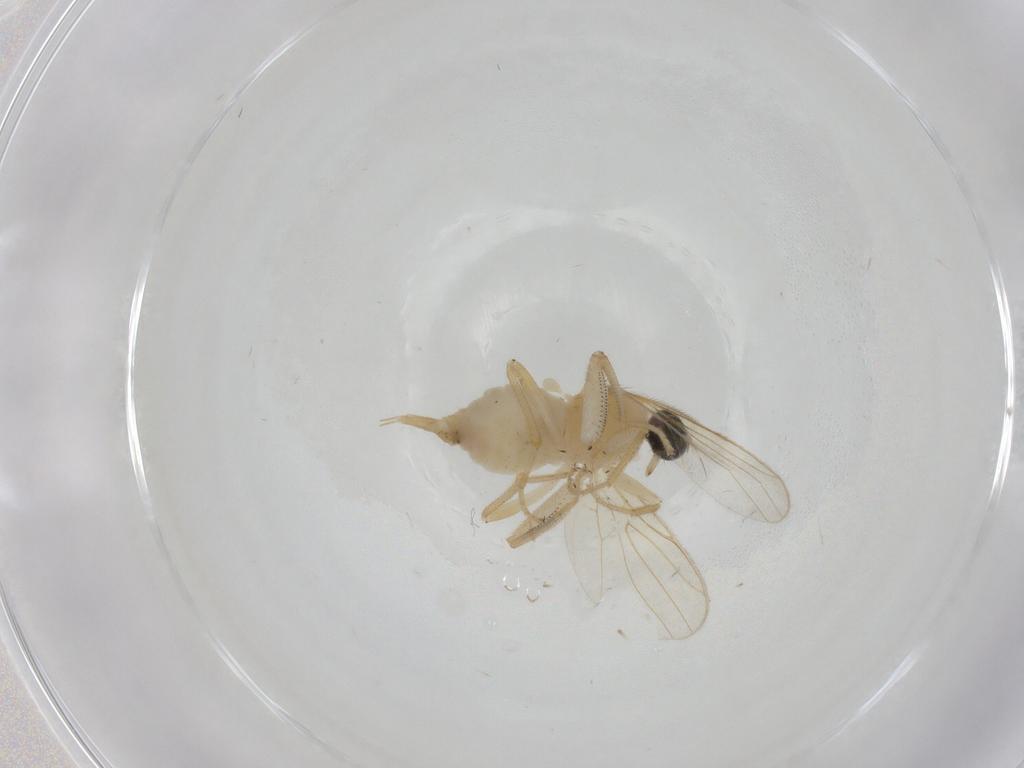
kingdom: Animalia
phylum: Arthropoda
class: Insecta
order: Diptera
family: Sciaridae
